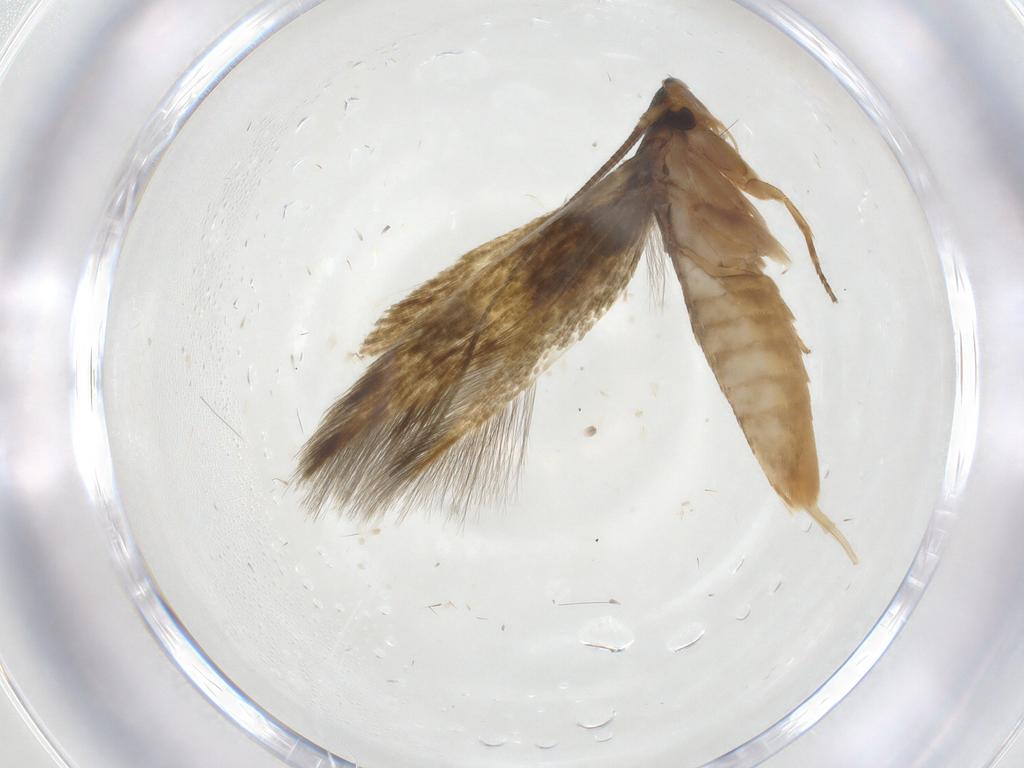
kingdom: Animalia
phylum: Arthropoda
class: Insecta
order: Lepidoptera
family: Tineidae
